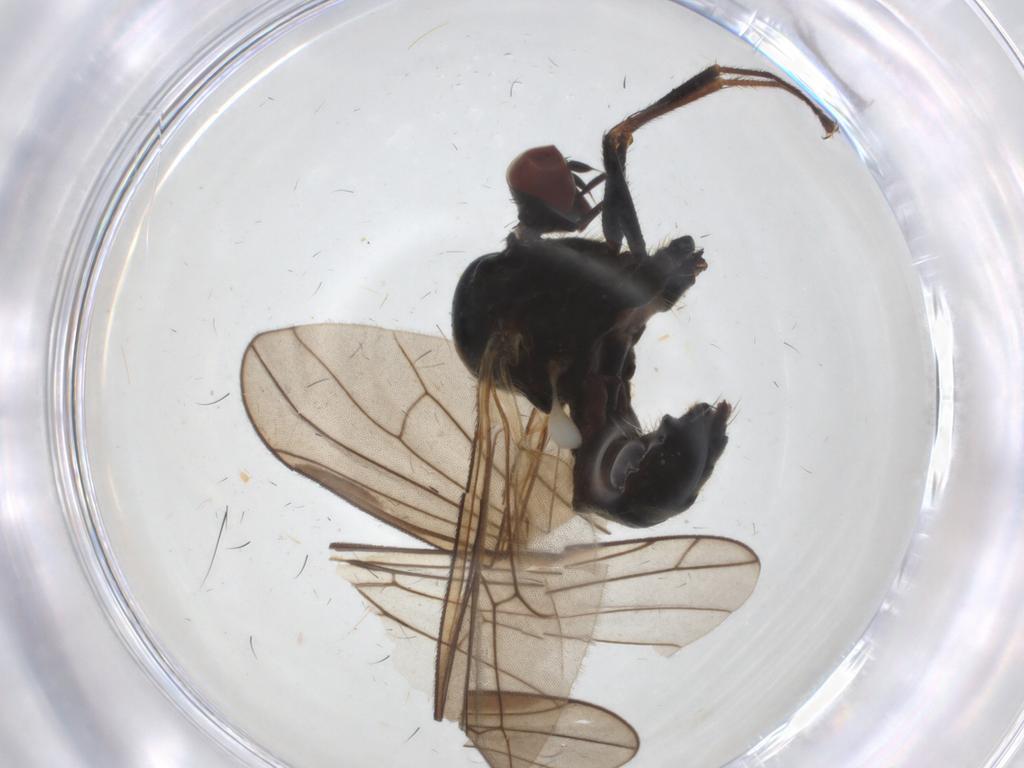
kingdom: Animalia
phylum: Arthropoda
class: Insecta
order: Diptera
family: Hybotidae
